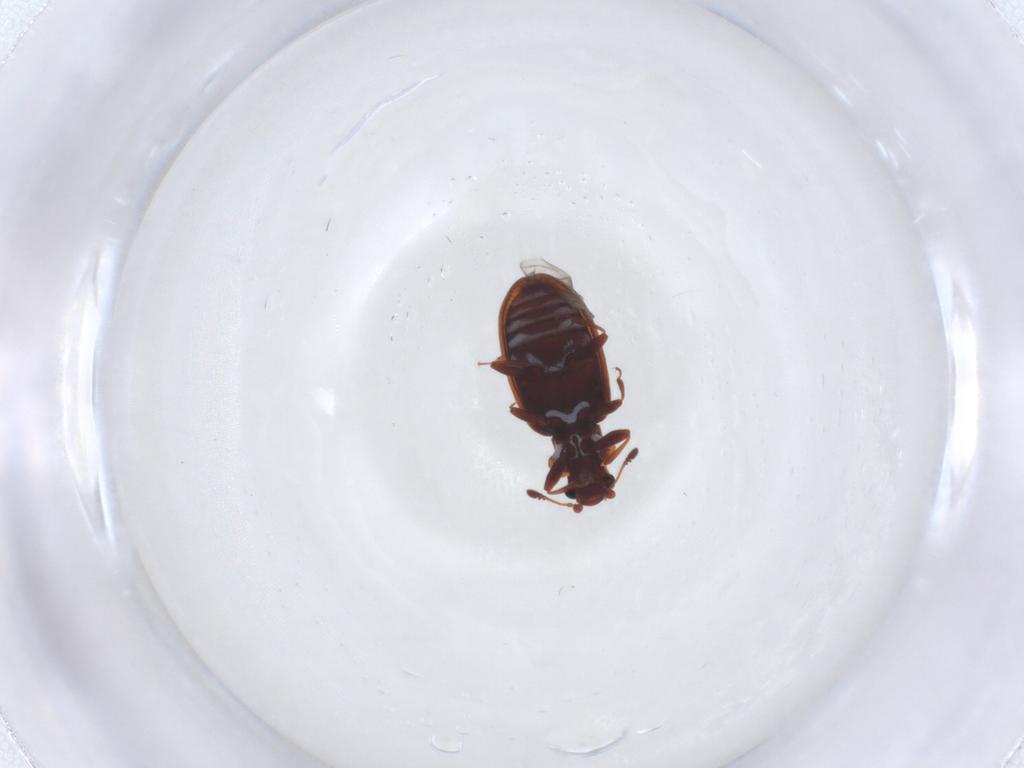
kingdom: Animalia
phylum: Arthropoda
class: Insecta
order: Coleoptera
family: Latridiidae
